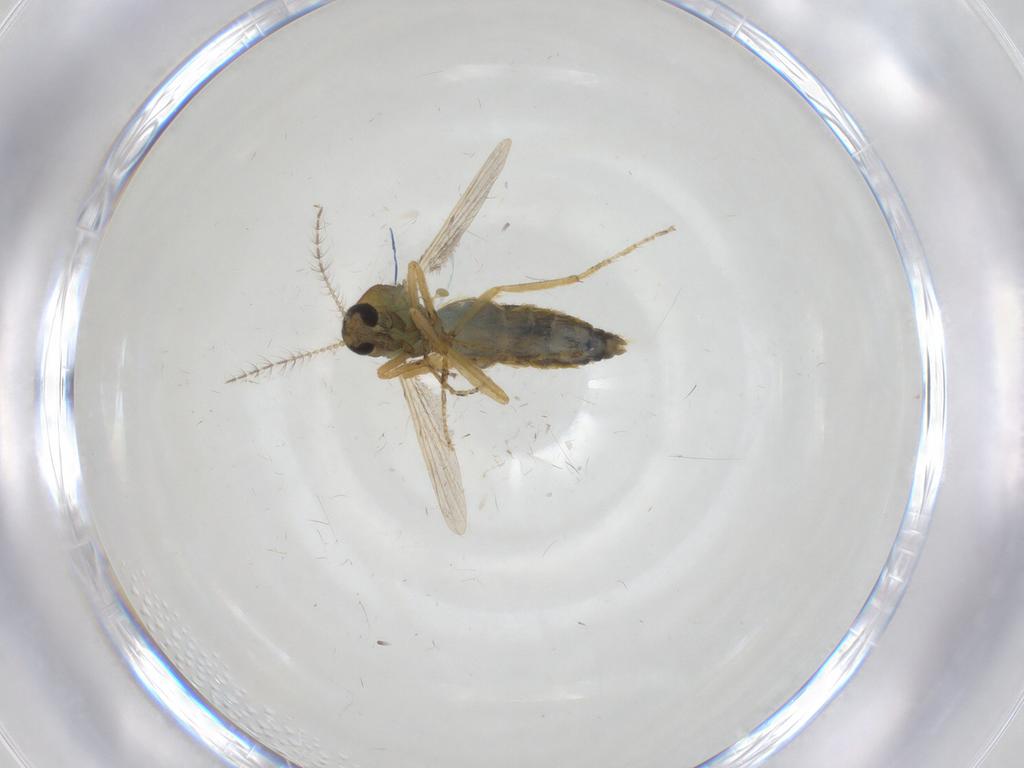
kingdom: Animalia
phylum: Arthropoda
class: Insecta
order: Diptera
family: Ceratopogonidae
